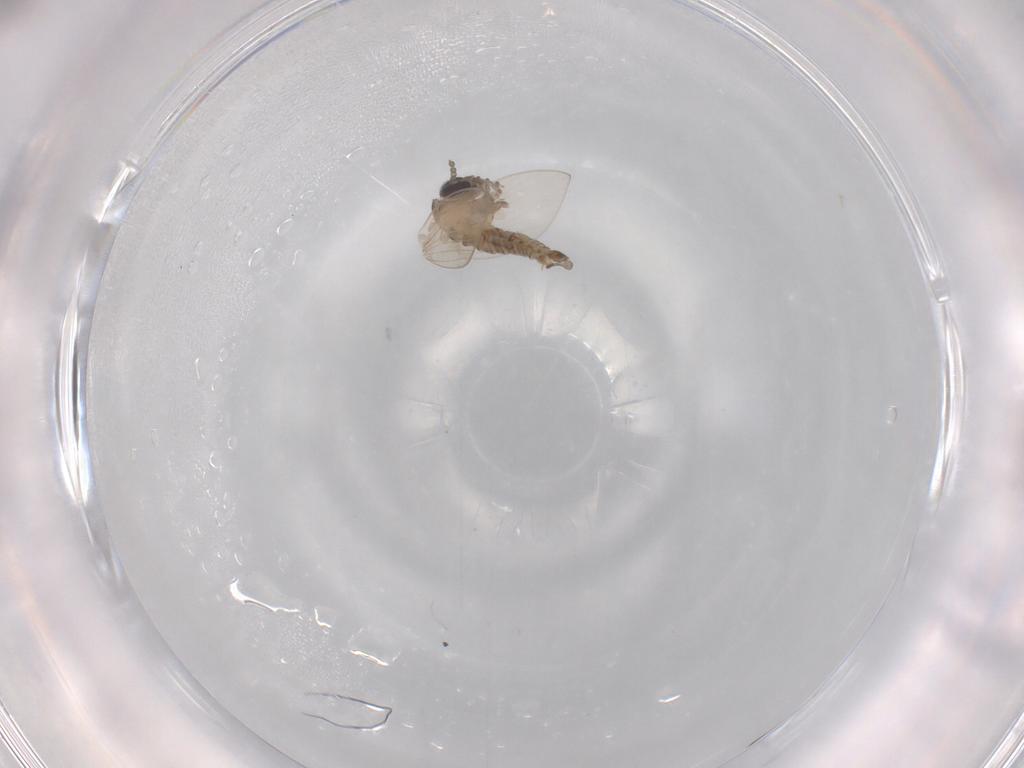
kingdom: Animalia
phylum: Arthropoda
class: Insecta
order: Diptera
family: Psychodidae
